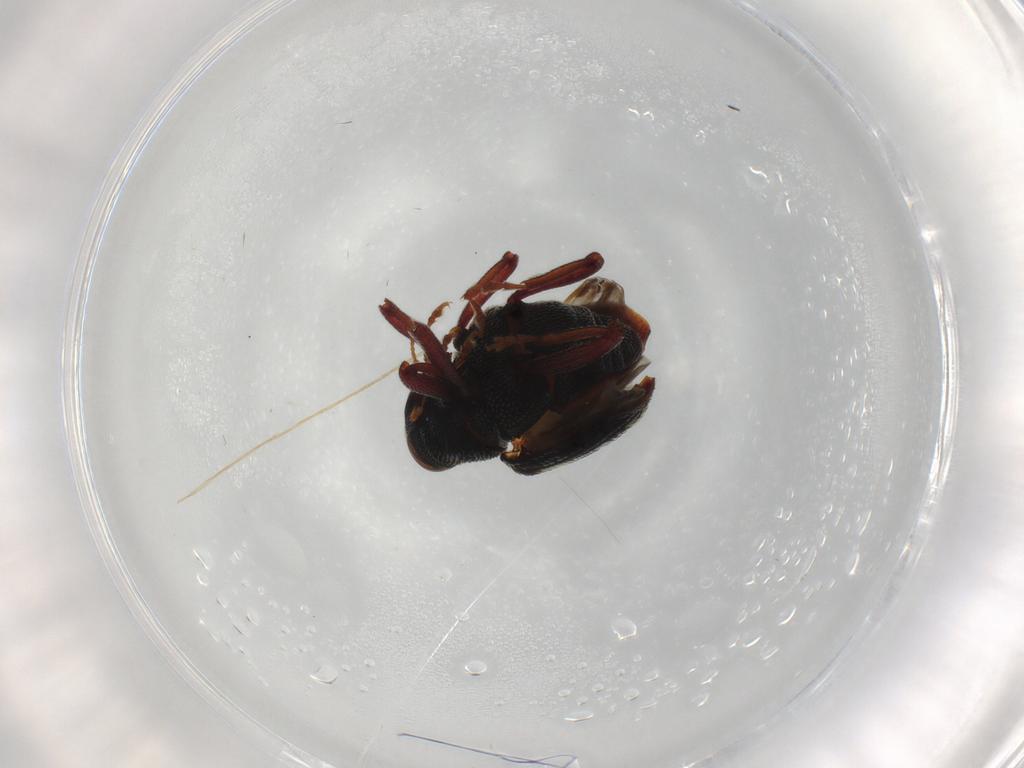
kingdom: Animalia
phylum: Arthropoda
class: Insecta
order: Coleoptera
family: Curculionidae
